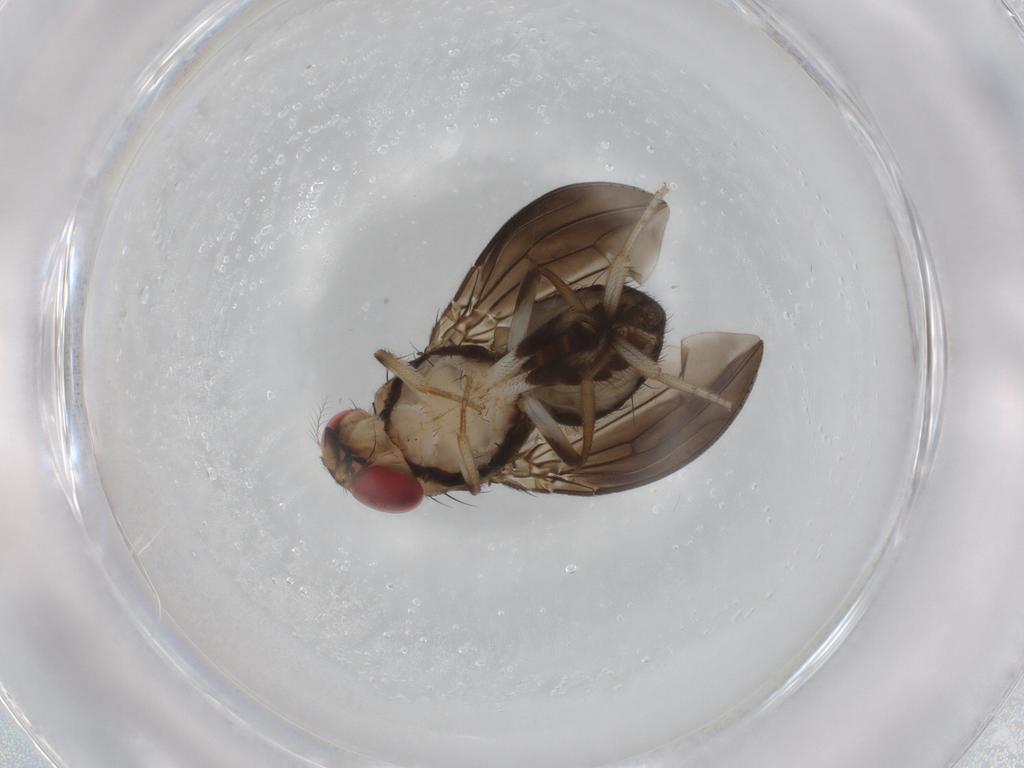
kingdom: Animalia
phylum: Arthropoda
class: Insecta
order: Diptera
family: Drosophilidae
